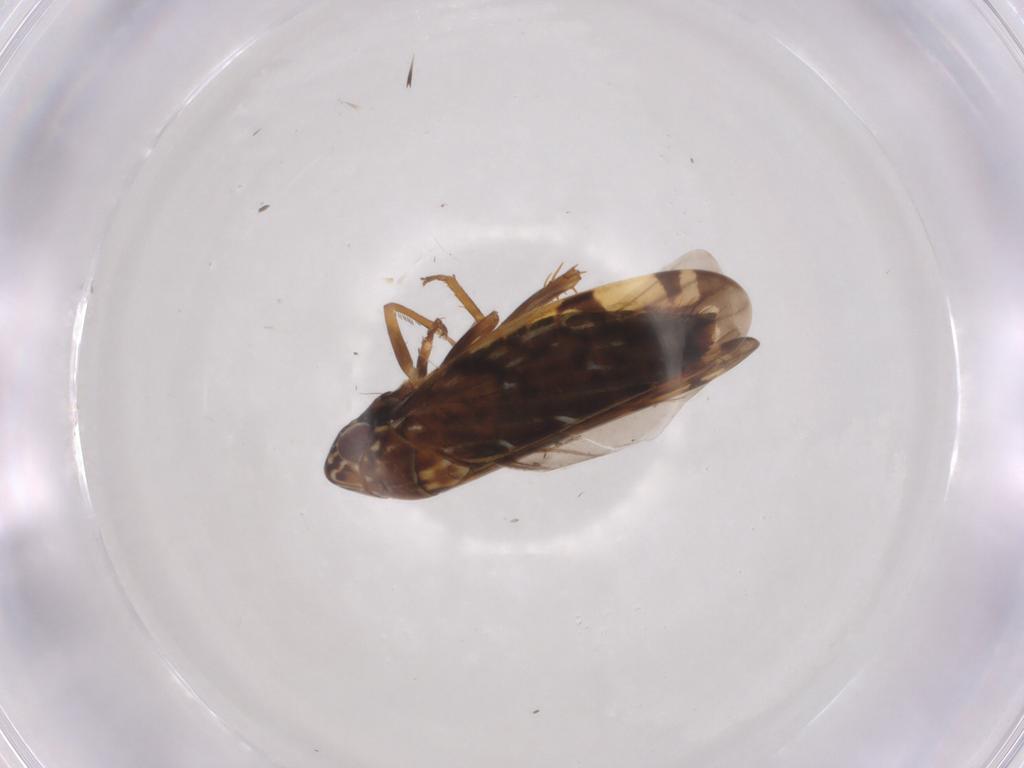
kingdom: Animalia
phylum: Arthropoda
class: Insecta
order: Hemiptera
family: Cicadellidae
